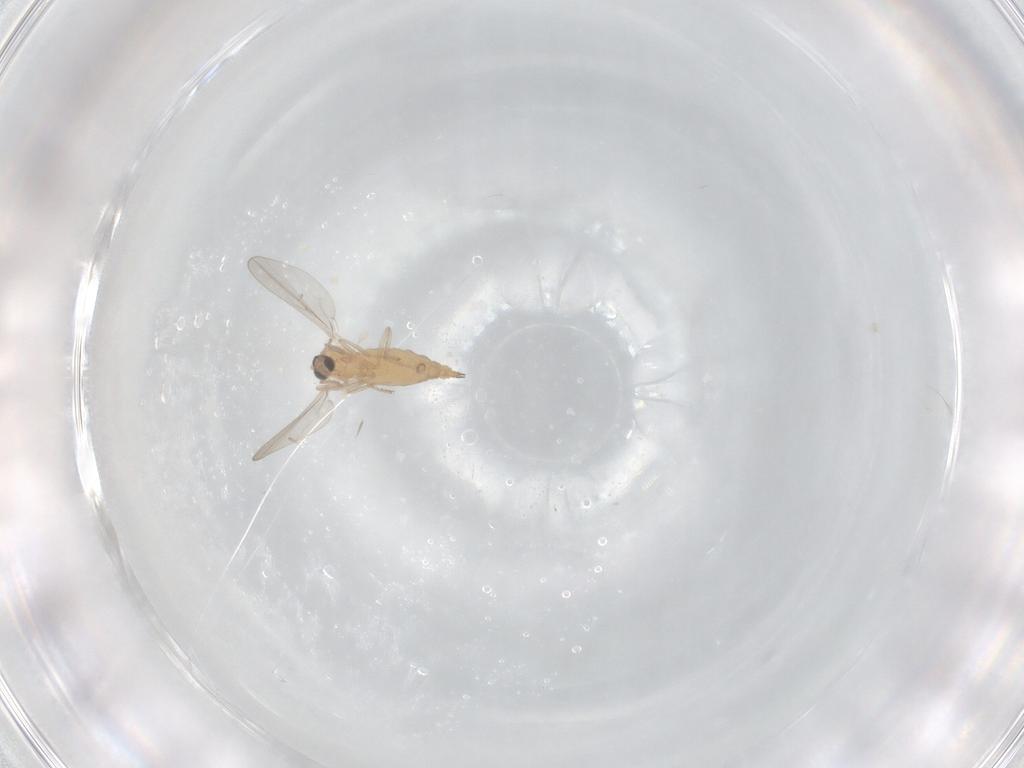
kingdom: Animalia
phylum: Arthropoda
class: Insecta
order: Diptera
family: Cecidomyiidae
